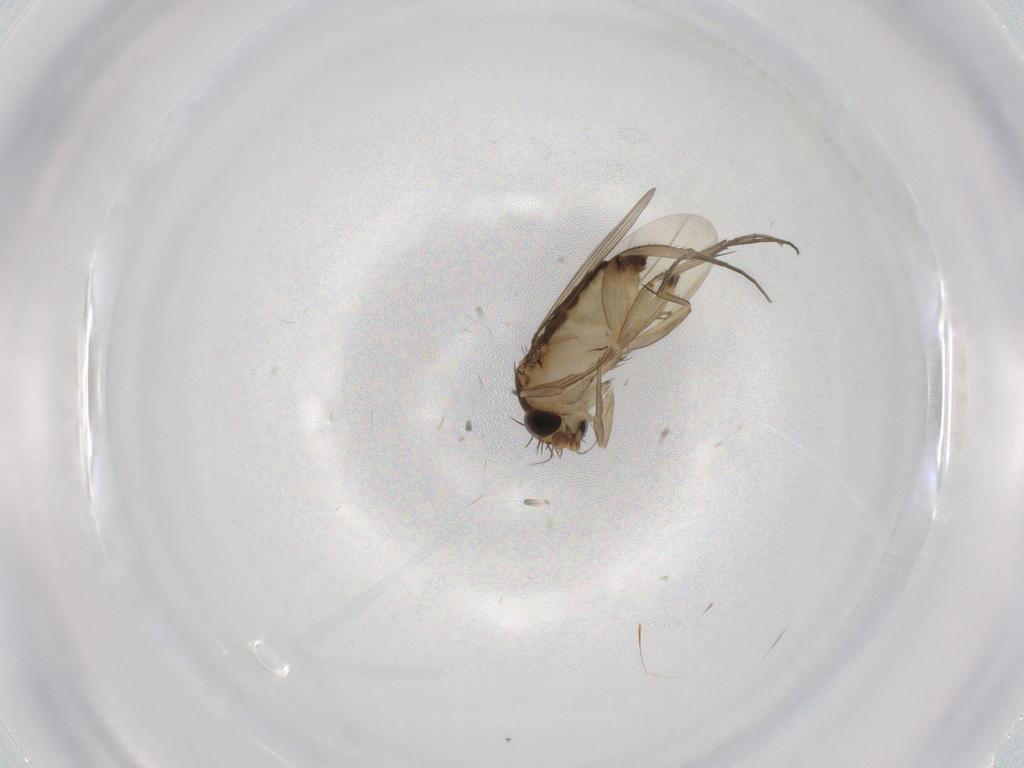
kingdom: Animalia
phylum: Arthropoda
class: Insecta
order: Diptera
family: Phoridae
